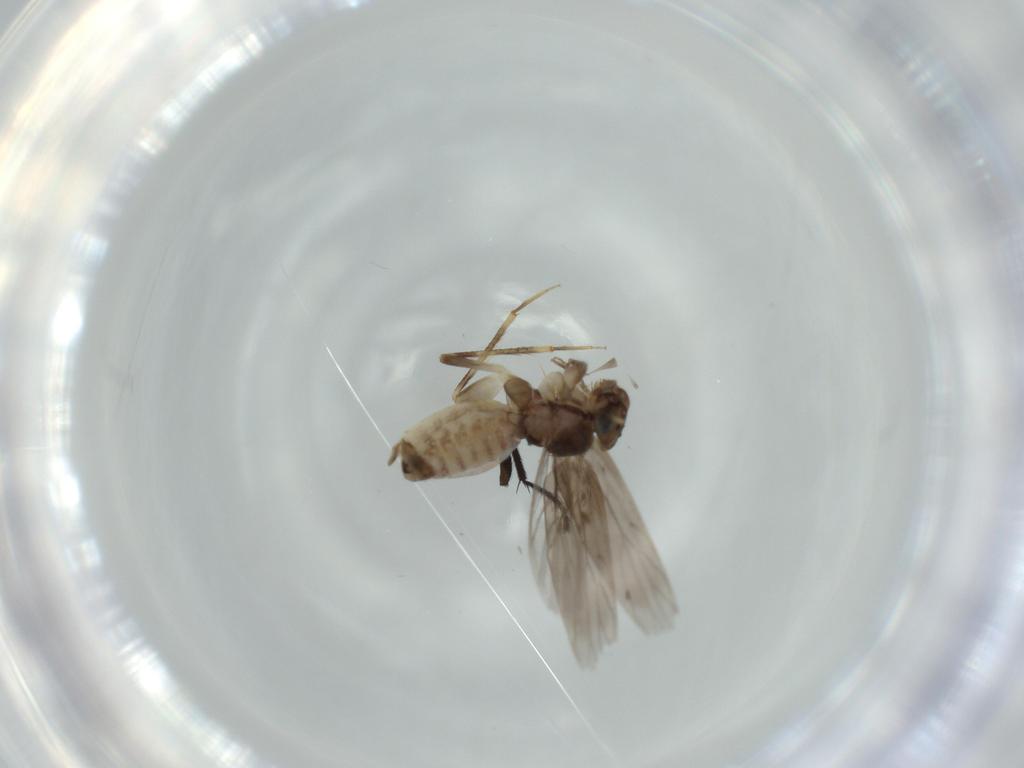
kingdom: Animalia
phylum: Arthropoda
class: Insecta
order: Psocodea
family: Lepidopsocidae
